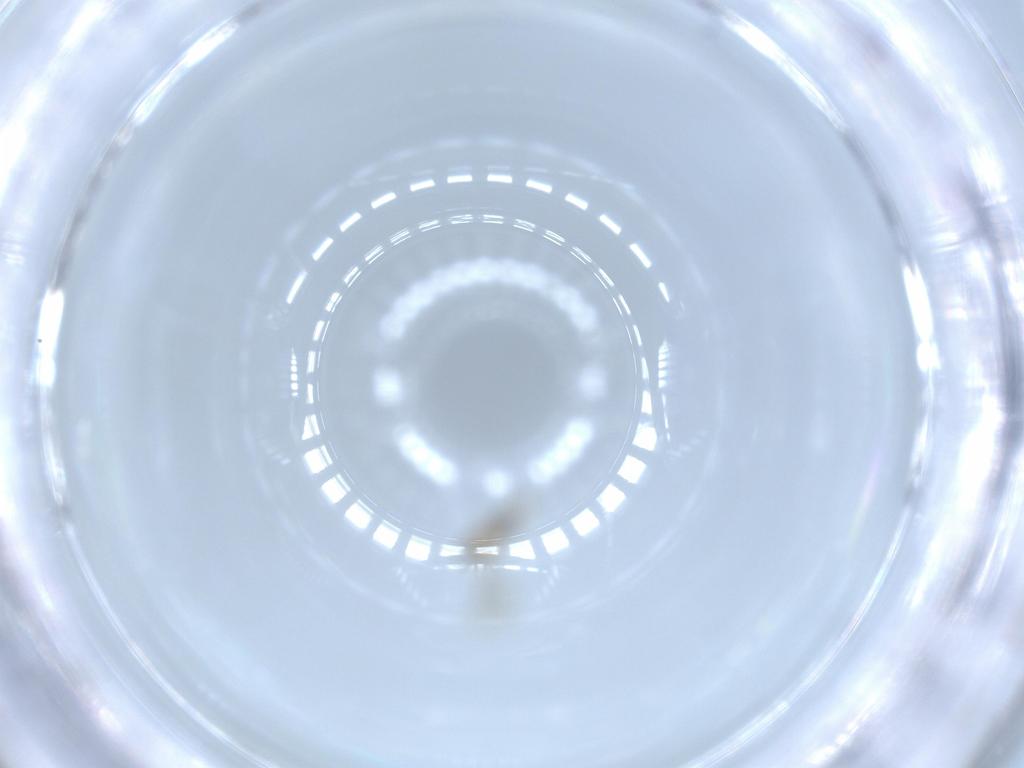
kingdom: Animalia
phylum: Arthropoda
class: Insecta
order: Diptera
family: Cecidomyiidae
